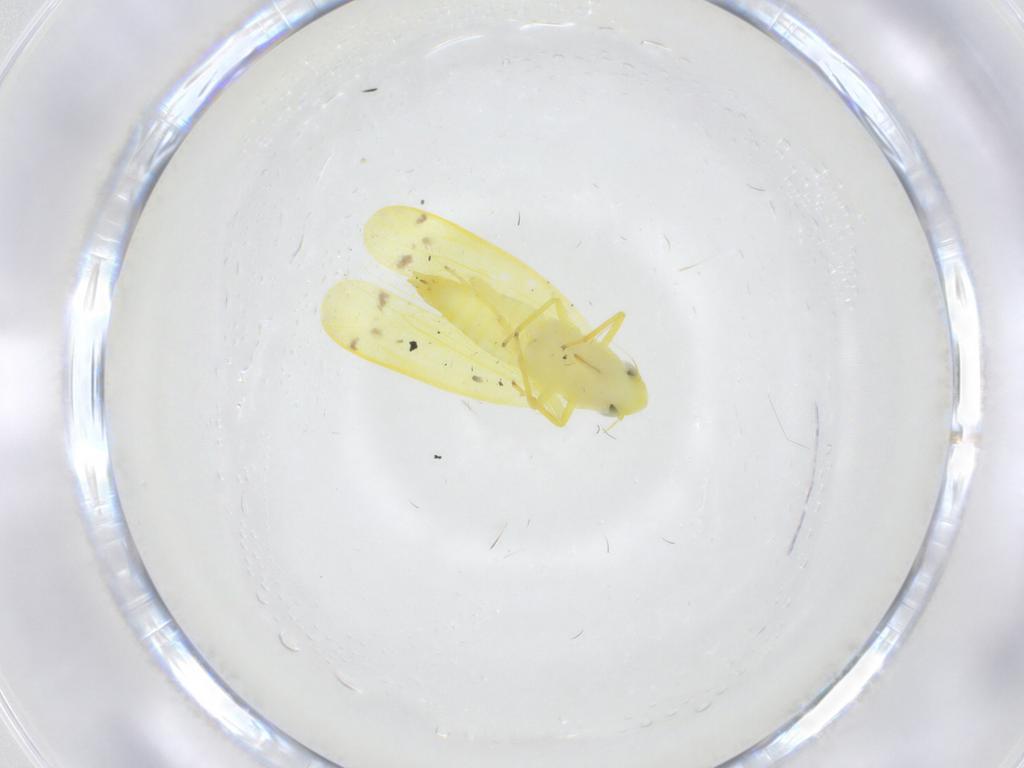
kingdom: Animalia
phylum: Arthropoda
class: Insecta
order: Hemiptera
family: Cicadellidae
